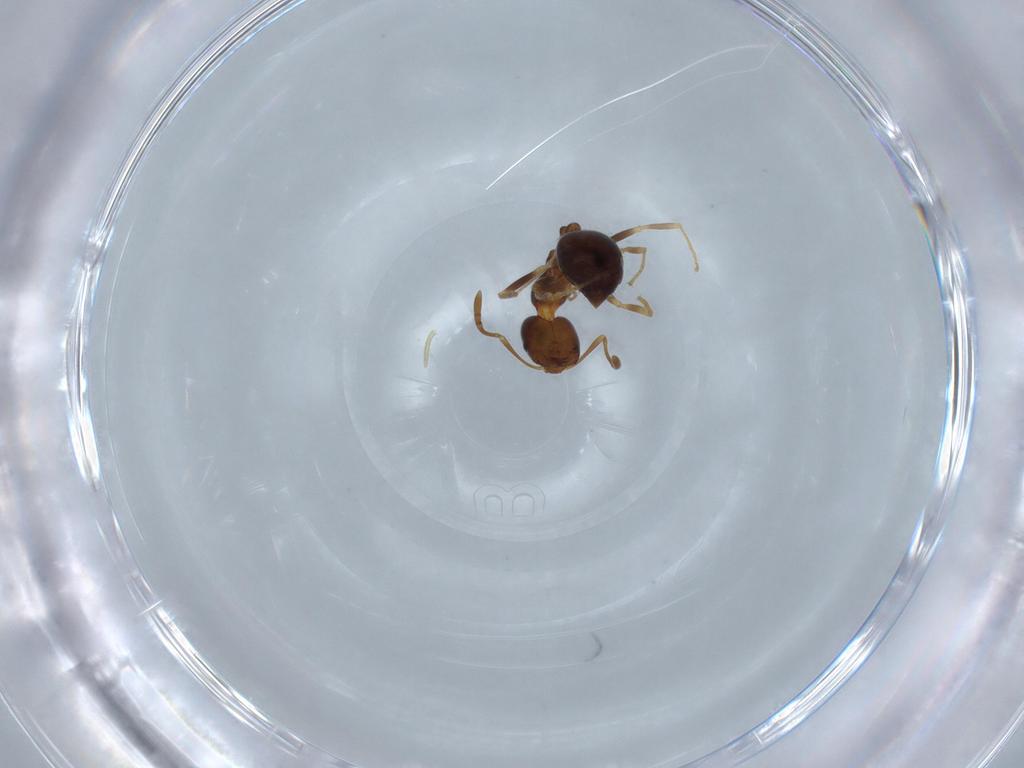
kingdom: Animalia
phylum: Arthropoda
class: Insecta
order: Hymenoptera
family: Formicidae
